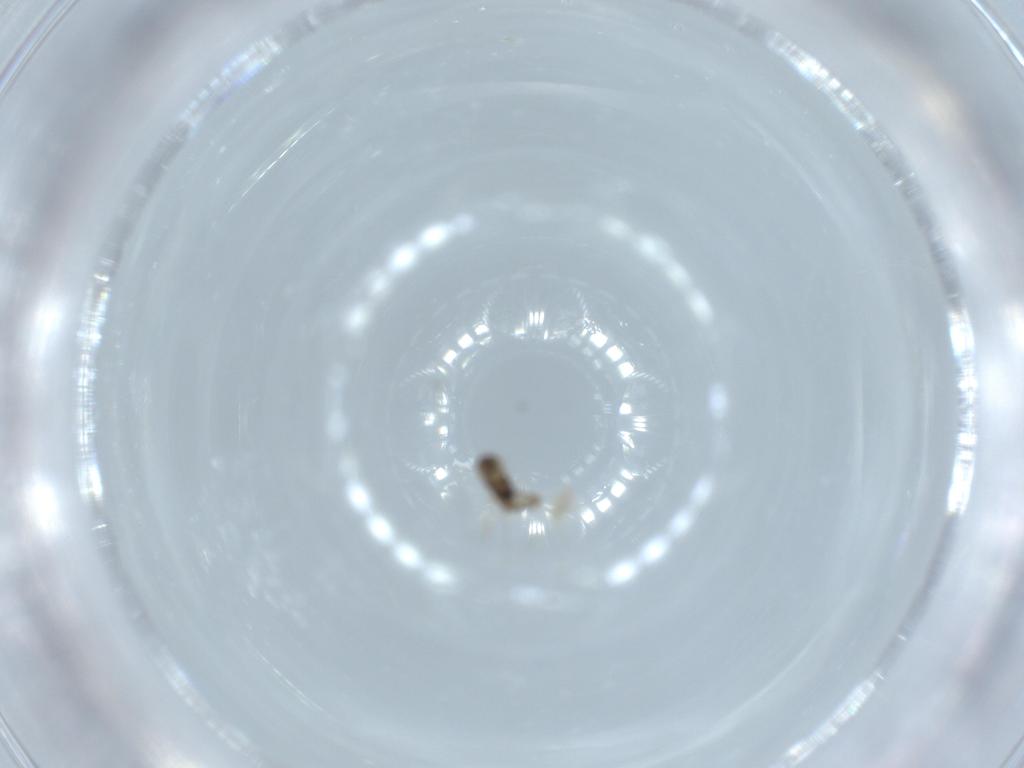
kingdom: Animalia
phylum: Arthropoda
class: Insecta
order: Diptera
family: Cecidomyiidae
